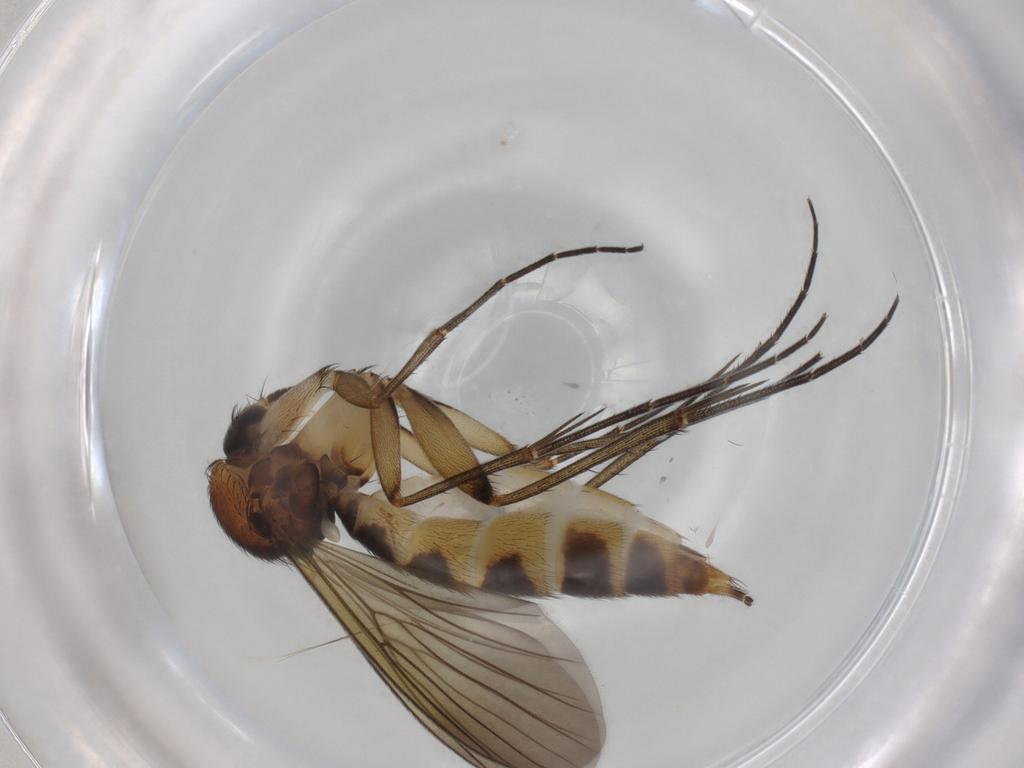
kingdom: Animalia
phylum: Arthropoda
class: Insecta
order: Diptera
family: Mycetophilidae
